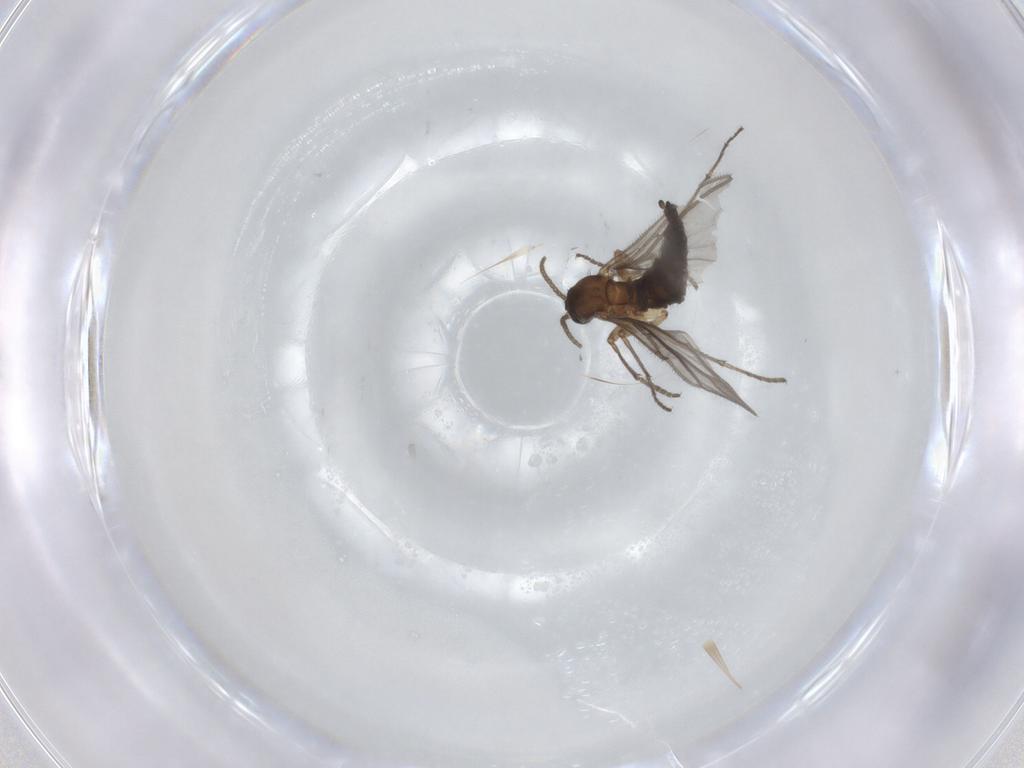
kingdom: Animalia
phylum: Arthropoda
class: Insecta
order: Diptera
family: Sciaridae
